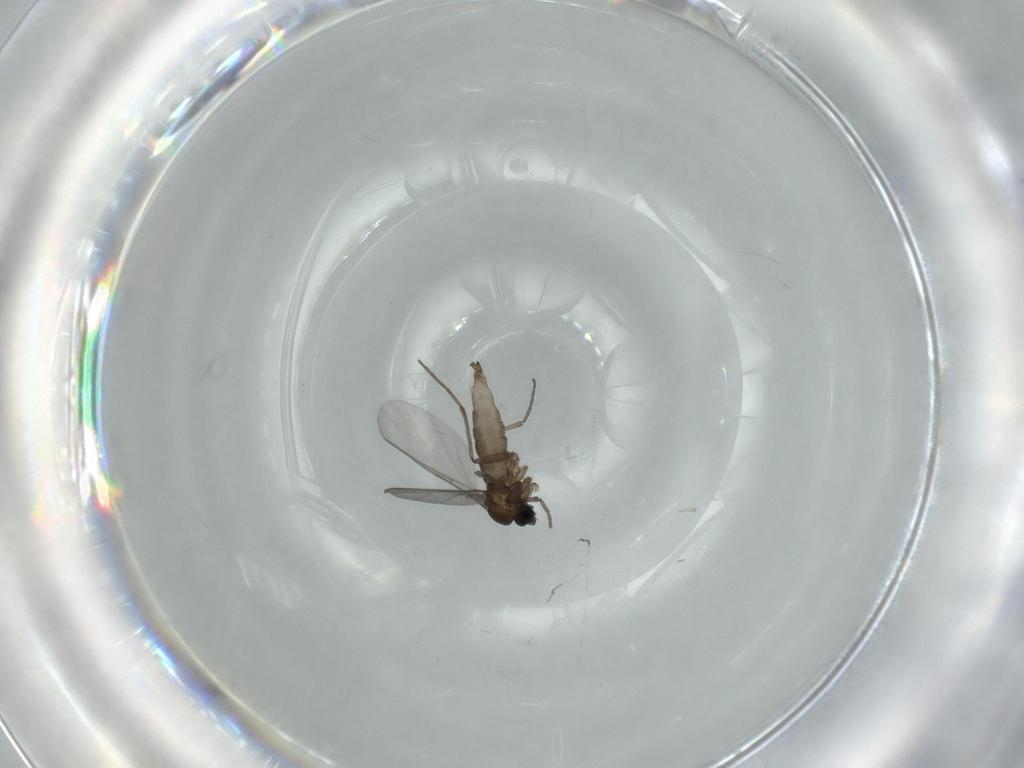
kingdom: Animalia
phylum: Arthropoda
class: Insecta
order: Diptera
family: Sciaridae
